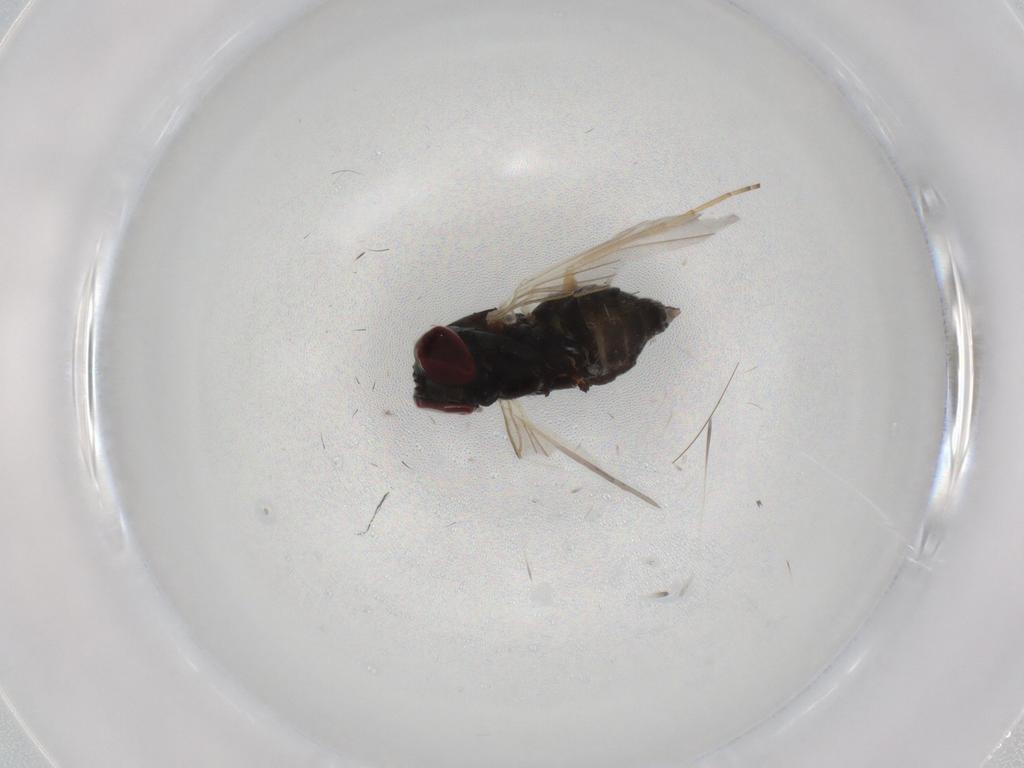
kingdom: Animalia
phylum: Arthropoda
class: Insecta
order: Diptera
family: Dolichopodidae
